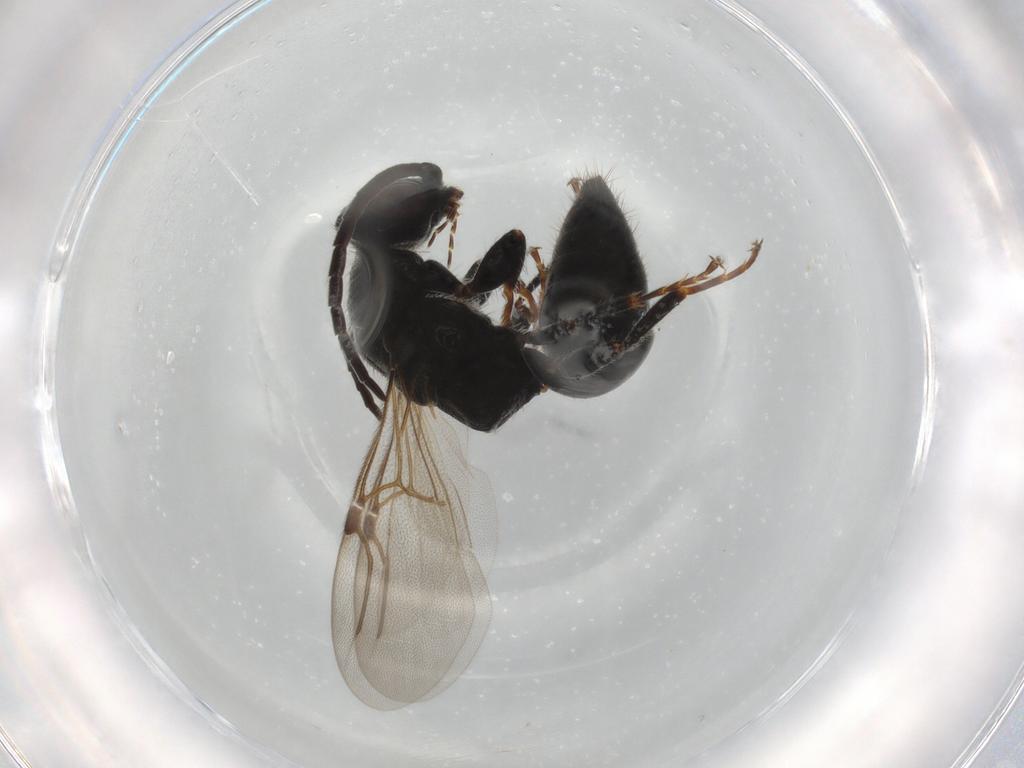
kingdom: Animalia
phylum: Arthropoda
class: Insecta
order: Hymenoptera
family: Bethylidae
